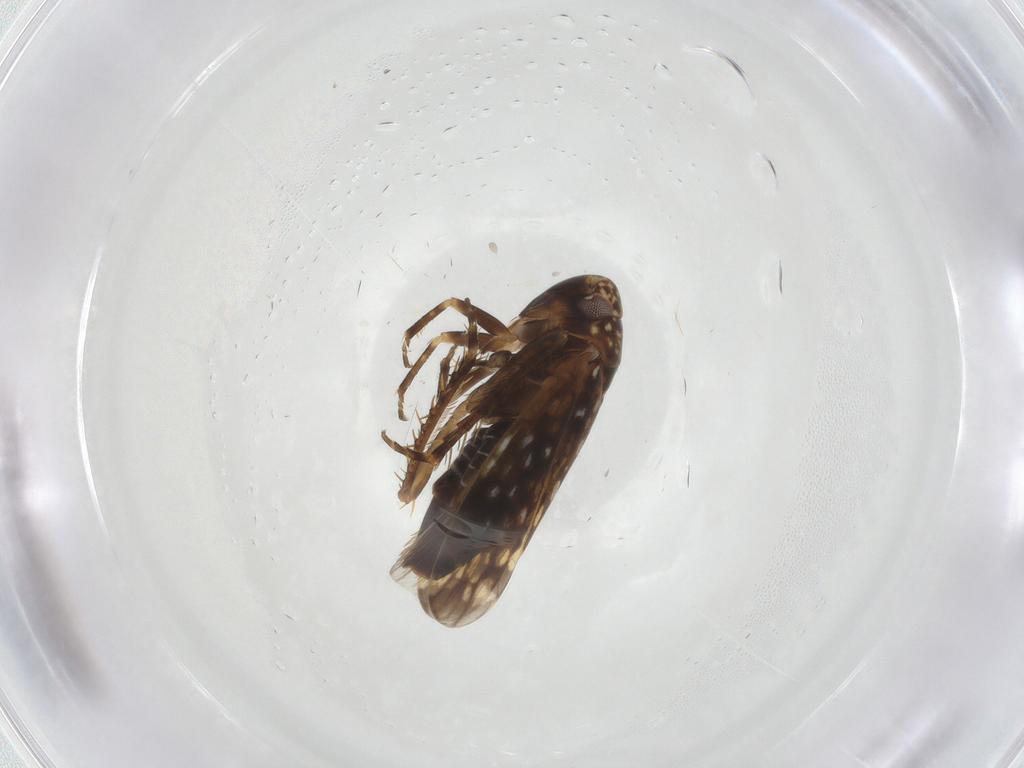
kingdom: Animalia
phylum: Arthropoda
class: Insecta
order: Hemiptera
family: Cicadellidae
